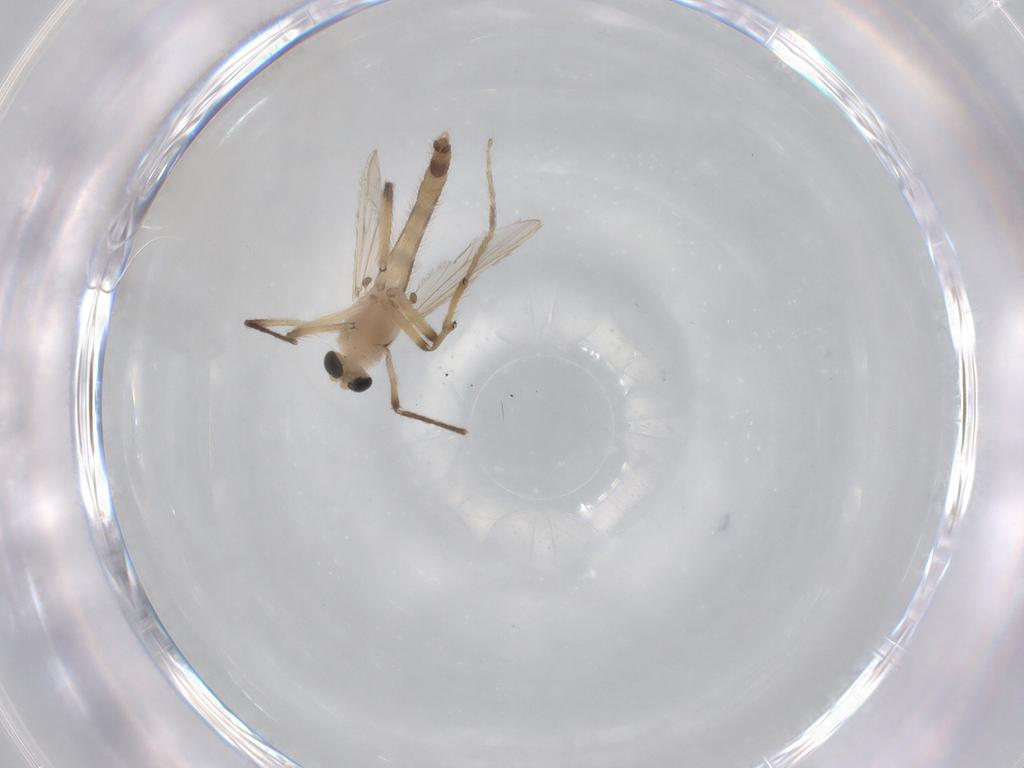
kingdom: Animalia
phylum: Arthropoda
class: Insecta
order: Diptera
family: Chironomidae
